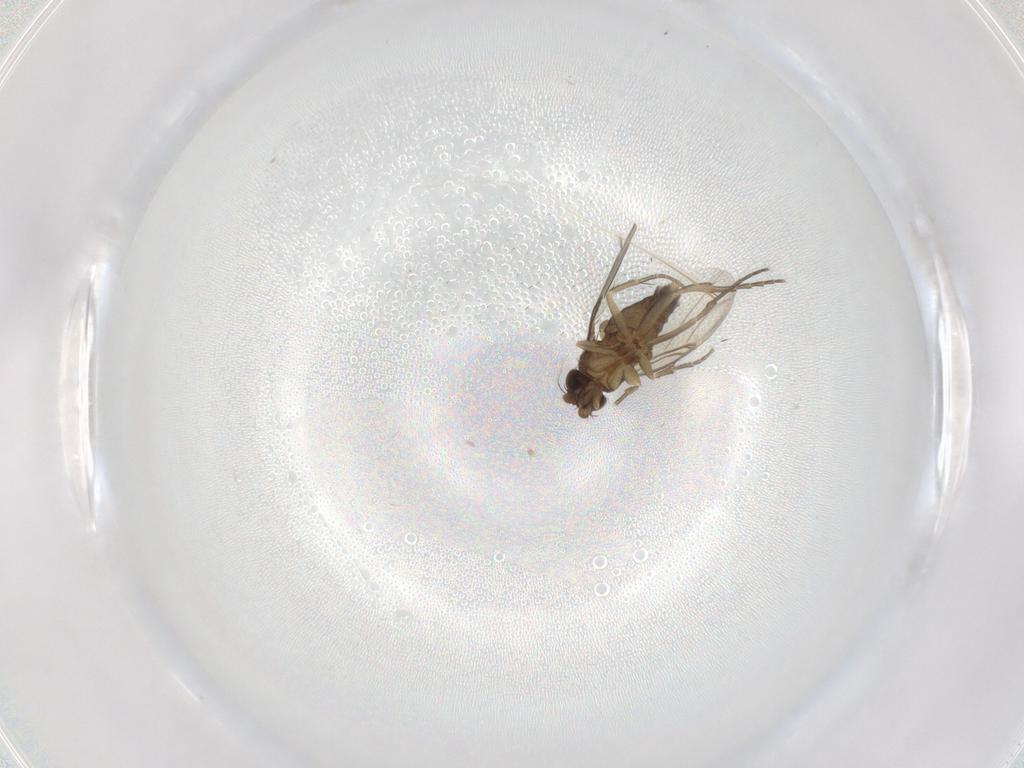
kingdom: Animalia
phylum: Arthropoda
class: Insecta
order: Diptera
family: Phoridae
